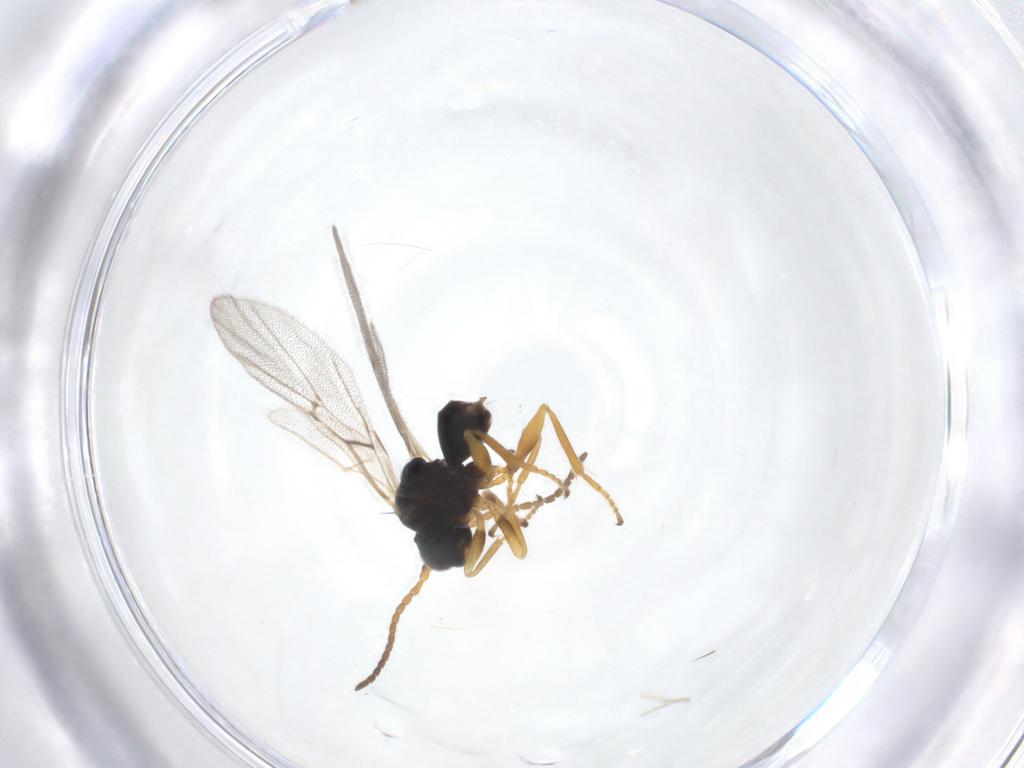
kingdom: Animalia
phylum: Arthropoda
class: Insecta
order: Hymenoptera
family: Cynipidae
